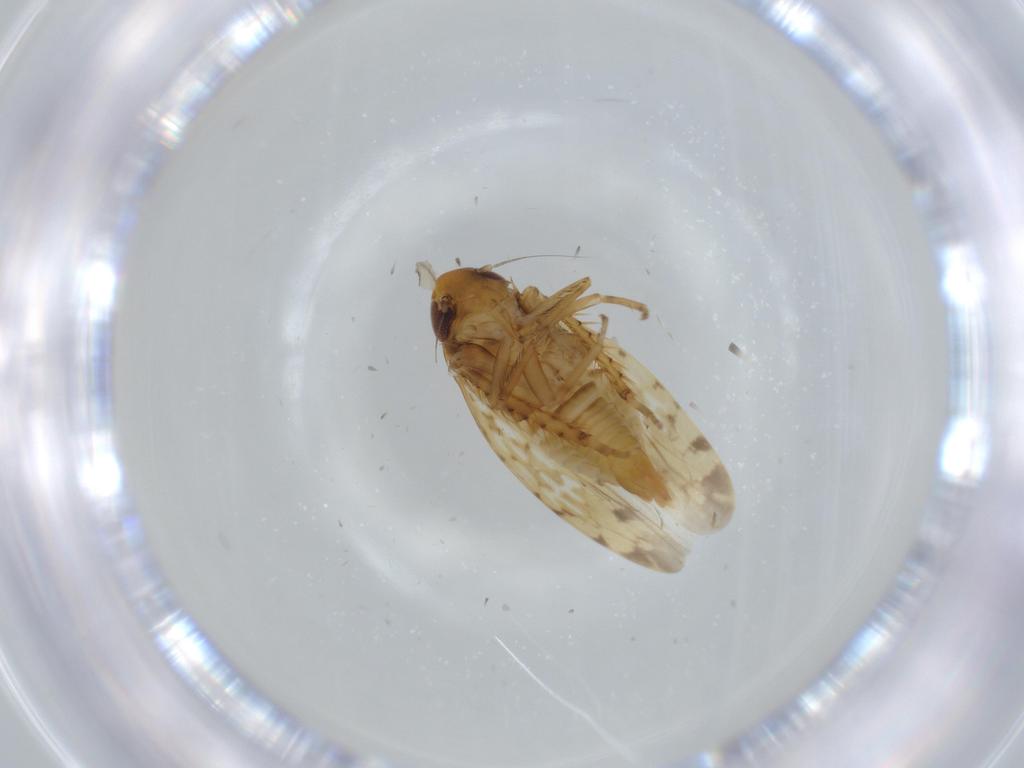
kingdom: Animalia
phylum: Arthropoda
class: Insecta
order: Hemiptera
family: Cicadellidae
